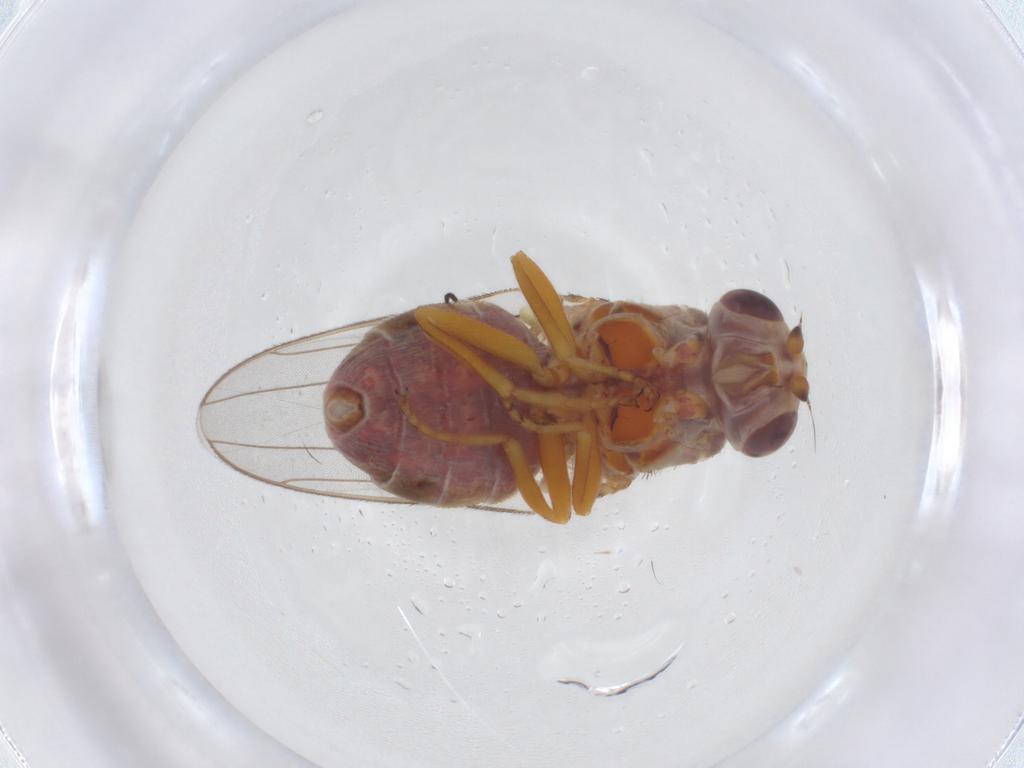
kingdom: Animalia
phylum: Arthropoda
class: Insecta
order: Diptera
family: Chloropidae
